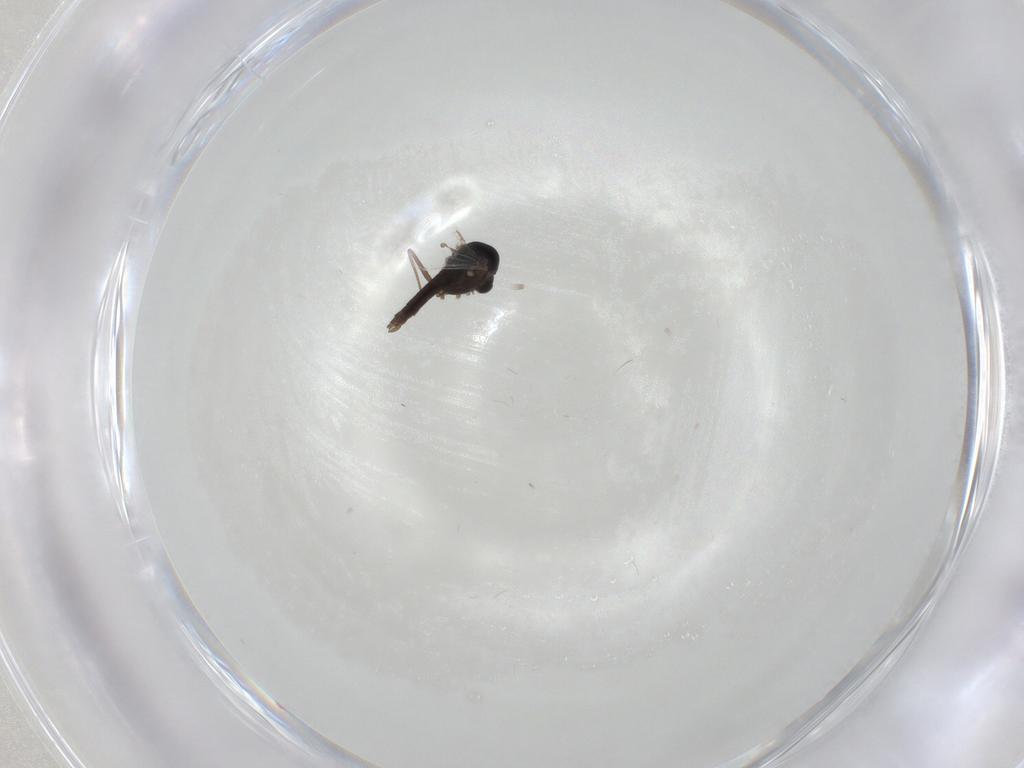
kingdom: Animalia
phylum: Arthropoda
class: Insecta
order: Diptera
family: Chironomidae
